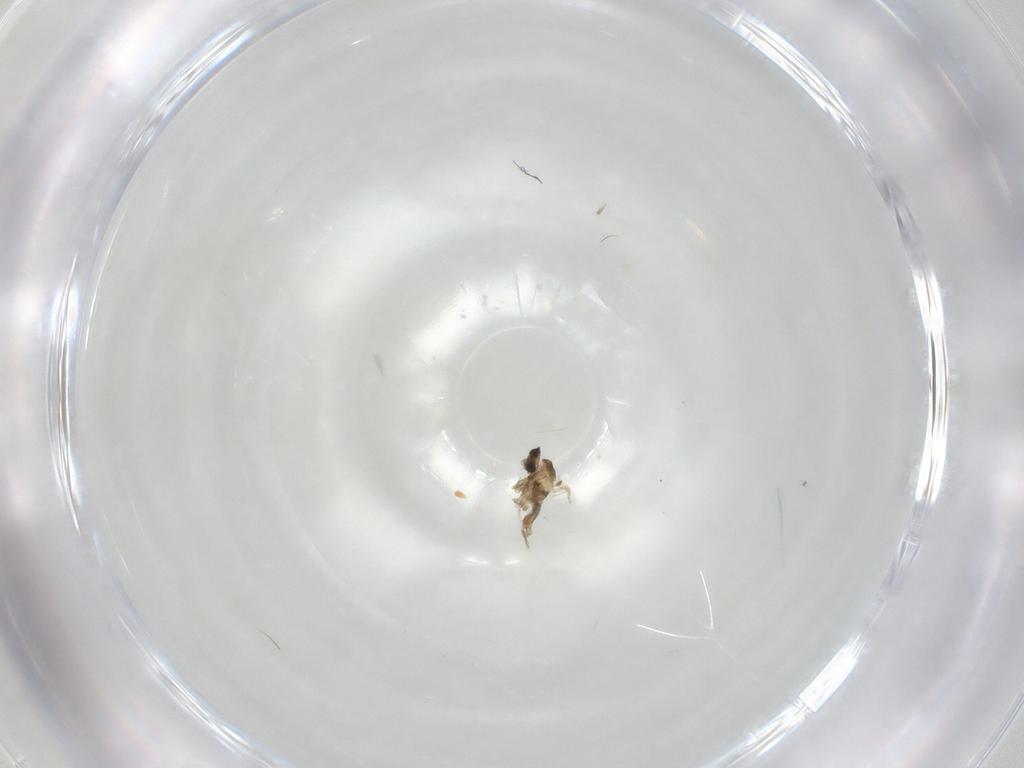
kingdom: Animalia
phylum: Arthropoda
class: Insecta
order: Diptera
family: Cecidomyiidae
